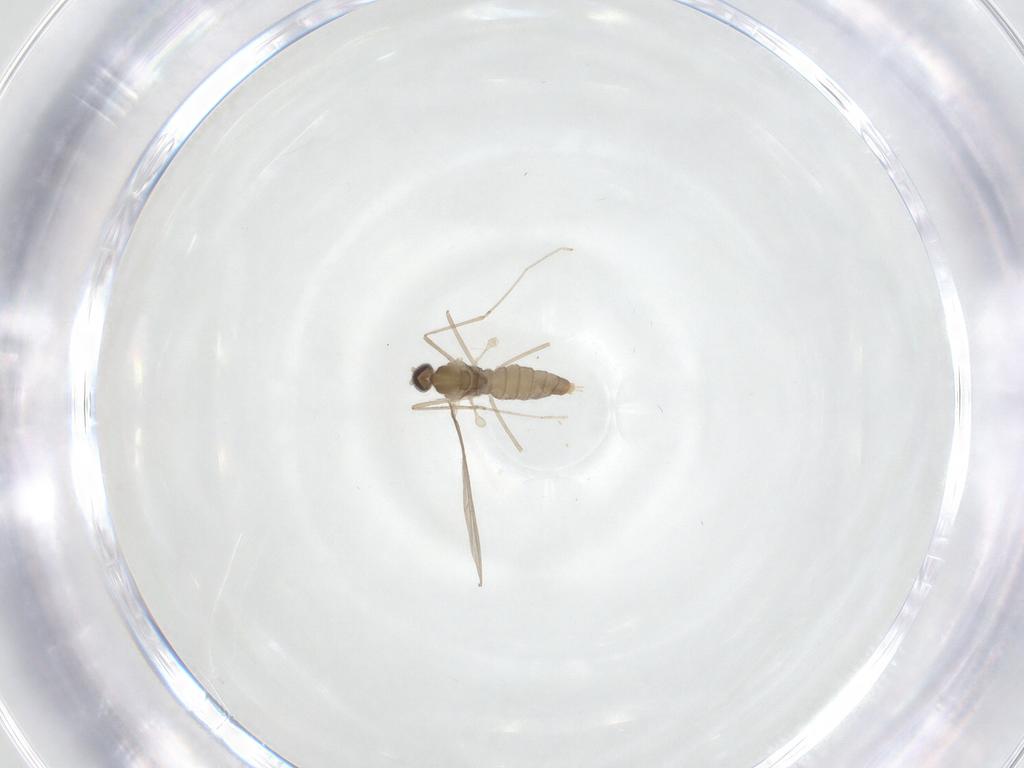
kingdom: Animalia
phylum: Arthropoda
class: Insecta
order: Diptera
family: Cecidomyiidae
